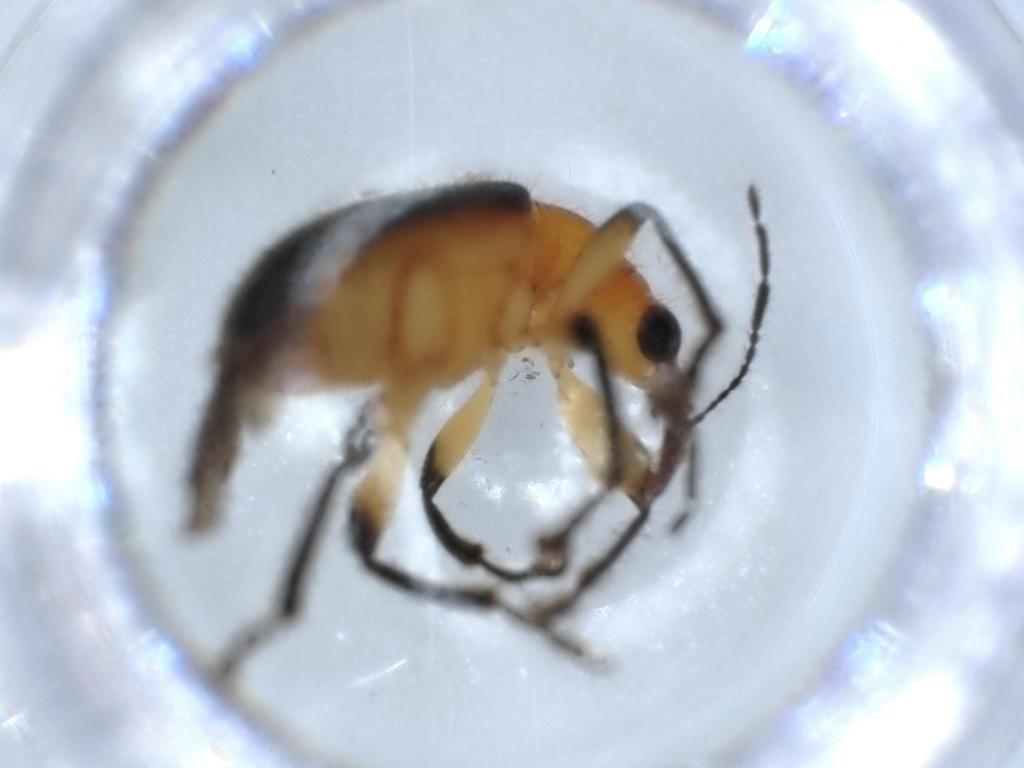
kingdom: Animalia
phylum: Arthropoda
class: Insecta
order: Coleoptera
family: Attelabidae
